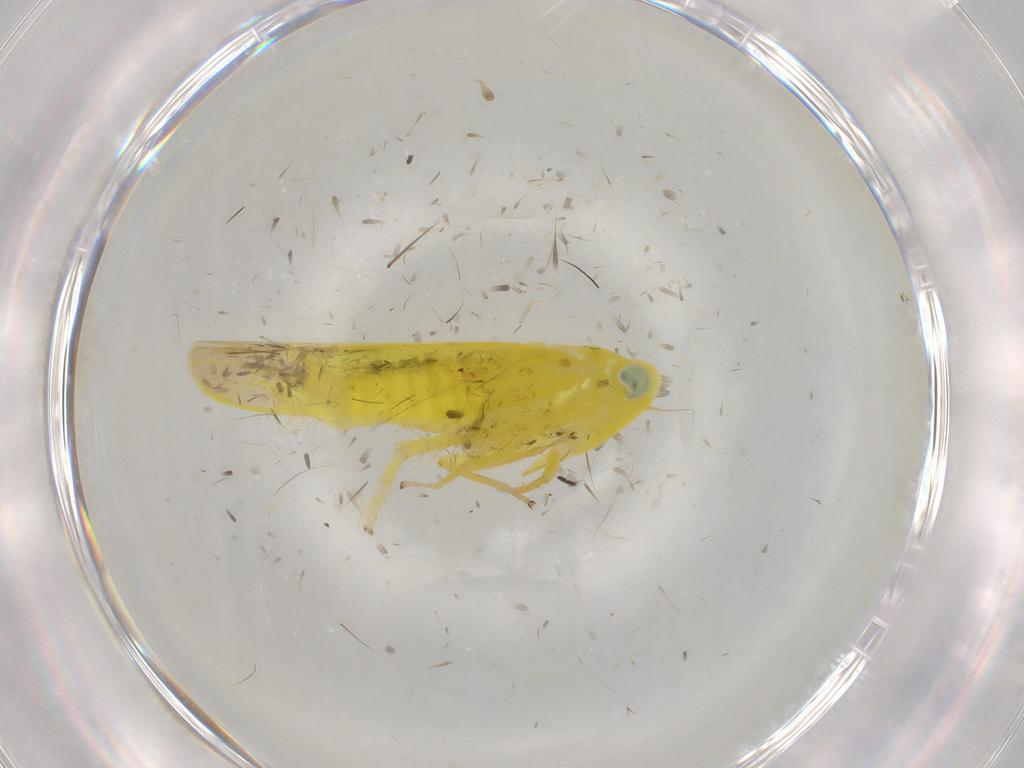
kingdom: Animalia
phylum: Arthropoda
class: Insecta
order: Hemiptera
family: Cicadellidae
